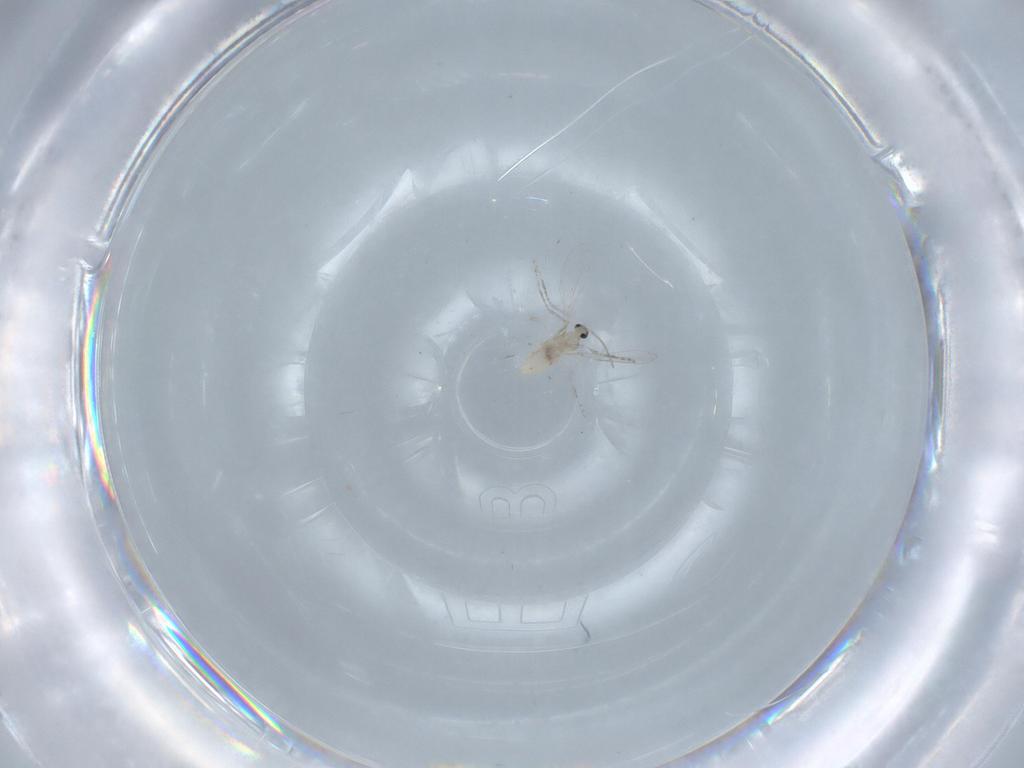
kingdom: Animalia
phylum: Arthropoda
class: Insecta
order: Diptera
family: Cecidomyiidae
